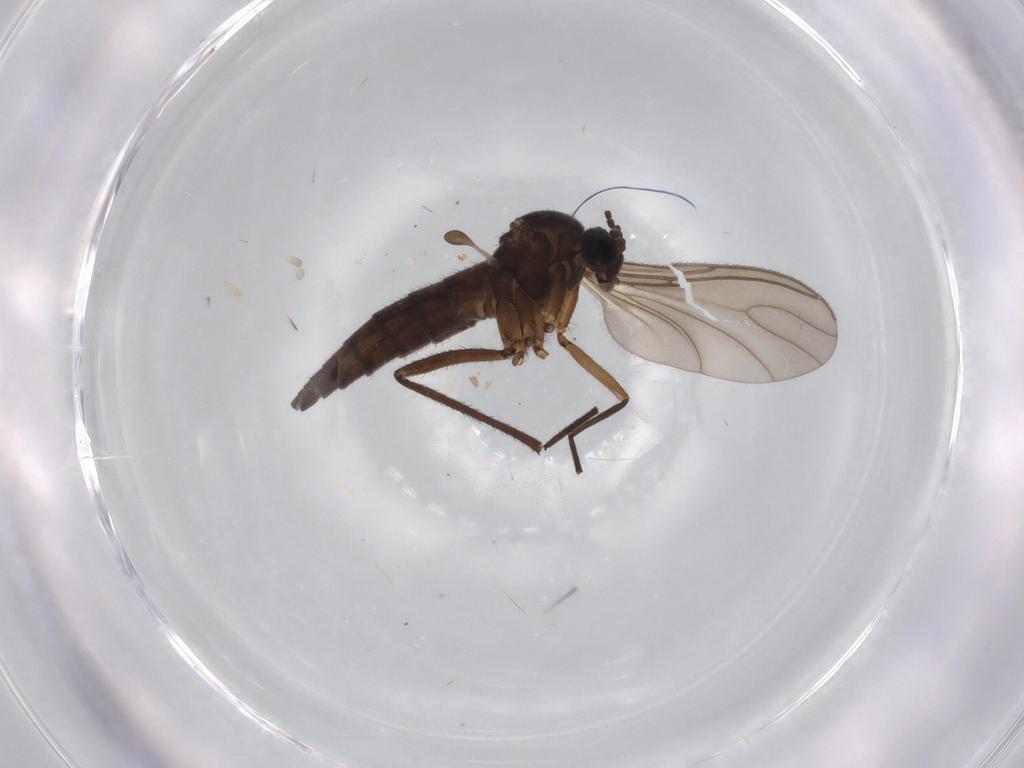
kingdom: Animalia
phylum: Arthropoda
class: Insecta
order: Diptera
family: Sciaridae
